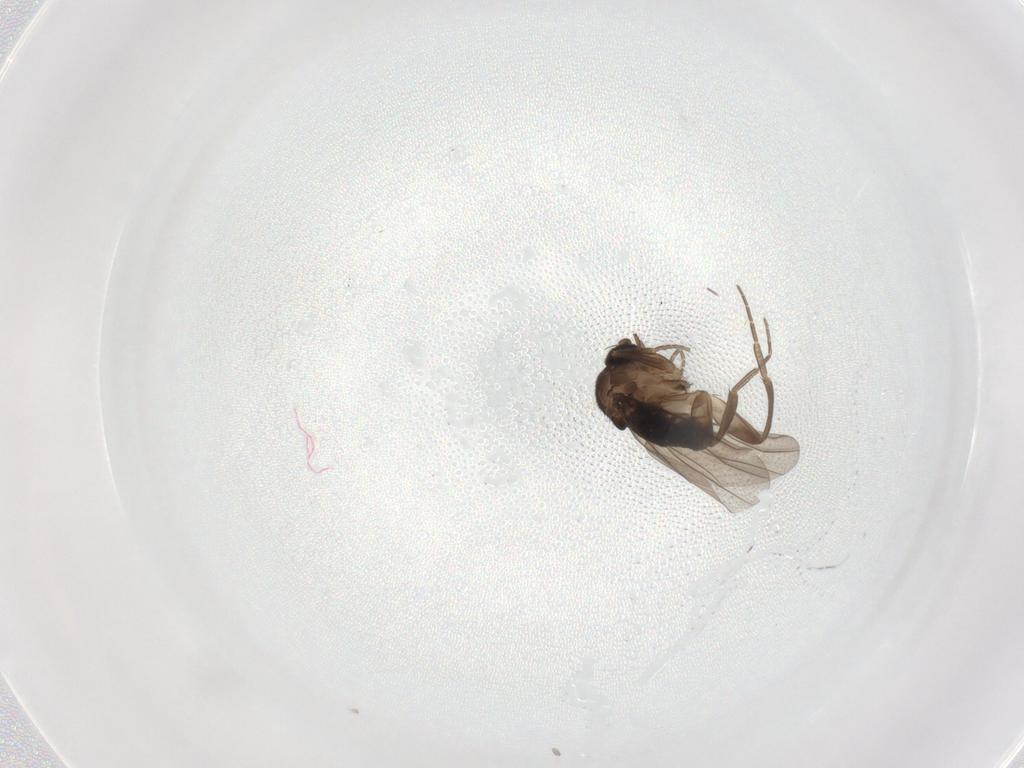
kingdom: Animalia
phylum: Arthropoda
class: Insecta
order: Diptera
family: Phoridae
